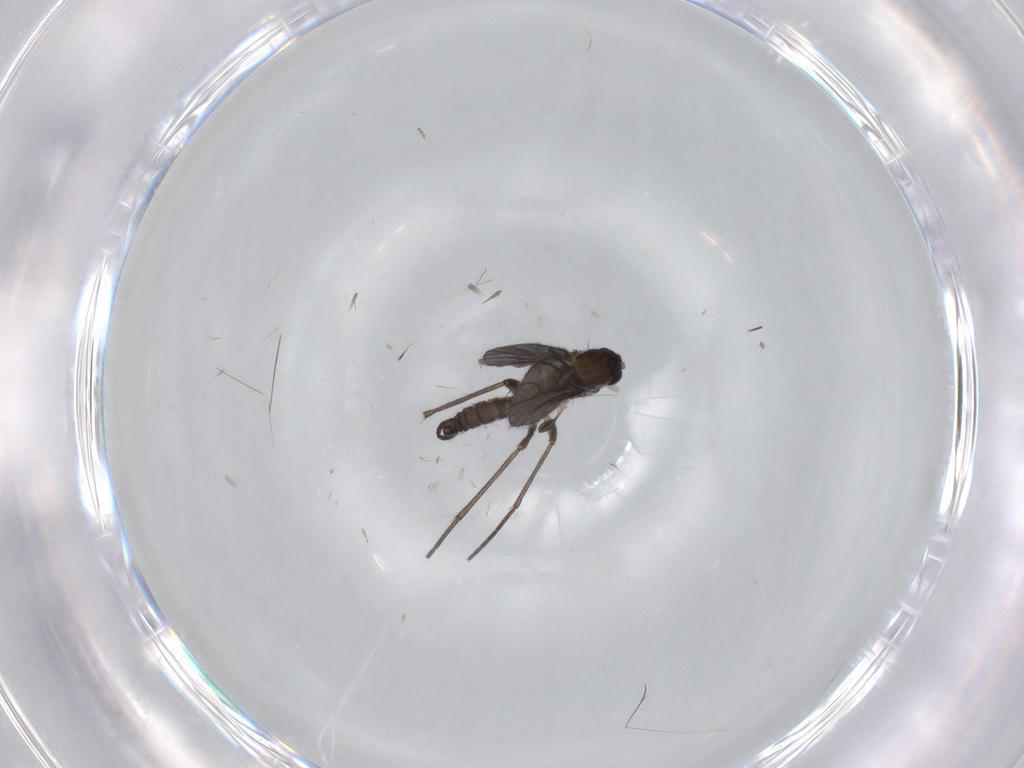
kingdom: Animalia
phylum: Arthropoda
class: Insecta
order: Diptera
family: Sciaridae
